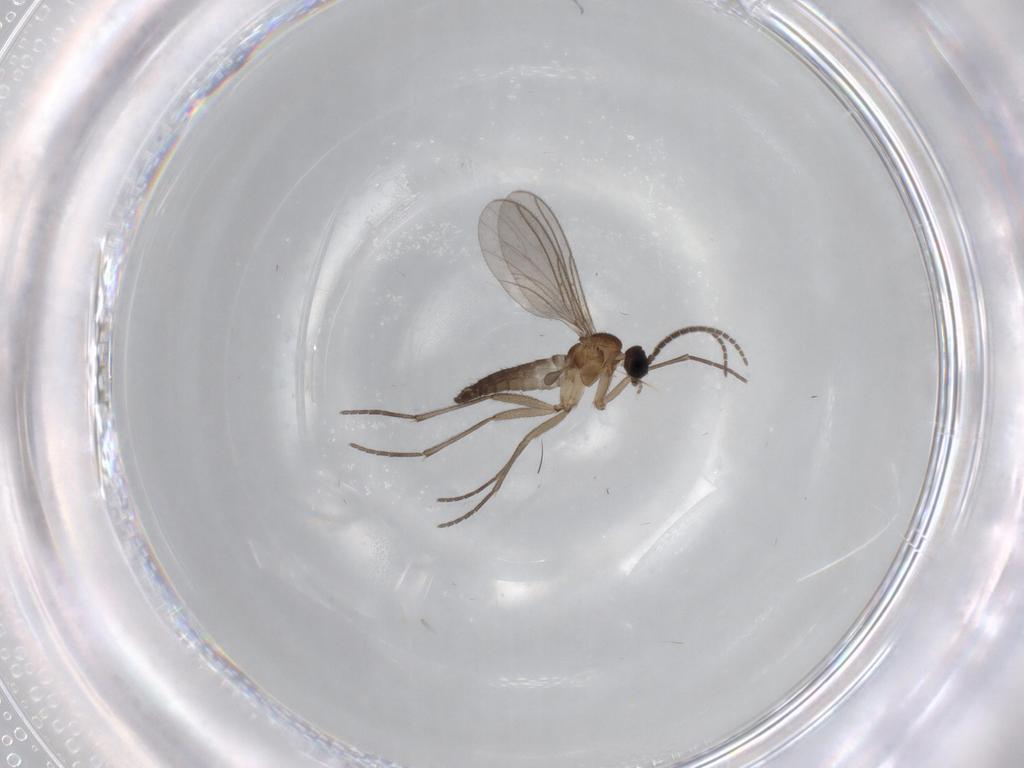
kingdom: Animalia
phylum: Arthropoda
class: Insecta
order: Diptera
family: Sciaridae
